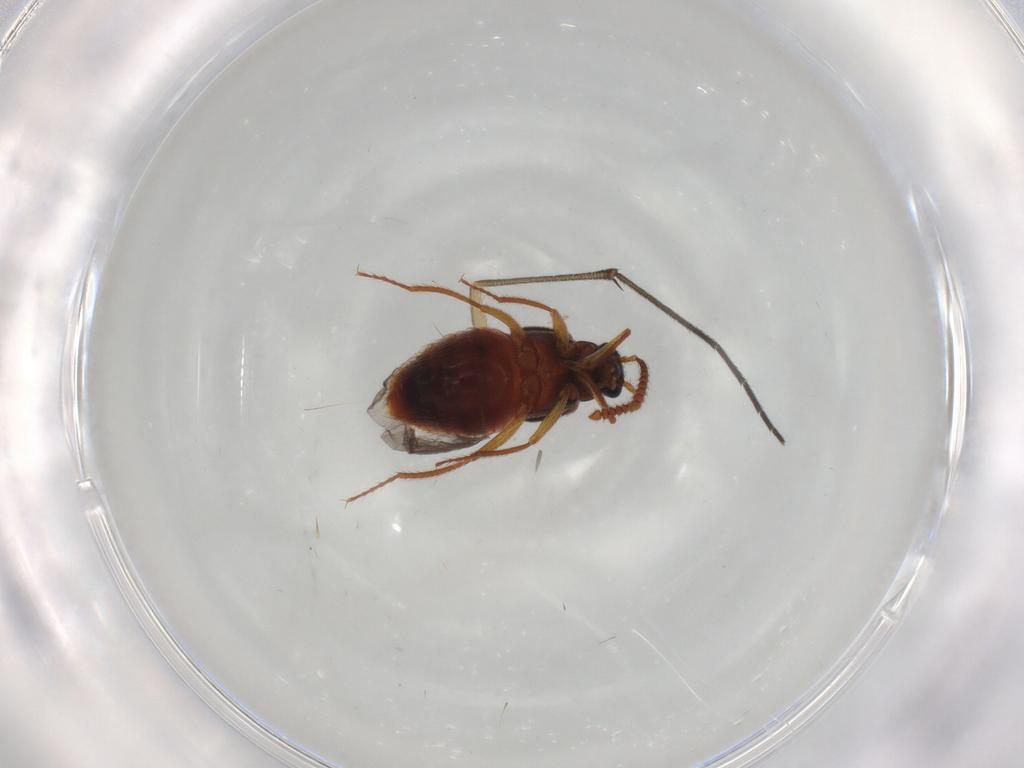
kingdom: Animalia
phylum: Arthropoda
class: Insecta
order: Coleoptera
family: Staphylinidae
